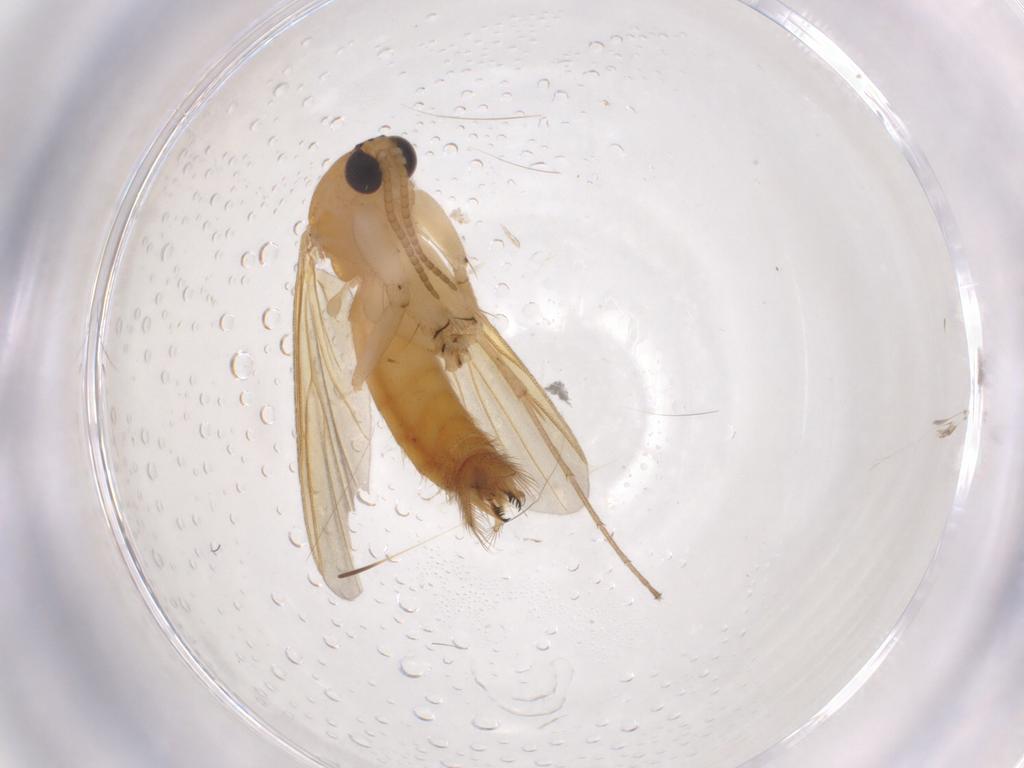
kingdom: Animalia
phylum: Arthropoda
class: Insecta
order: Diptera
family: Mycetophilidae
